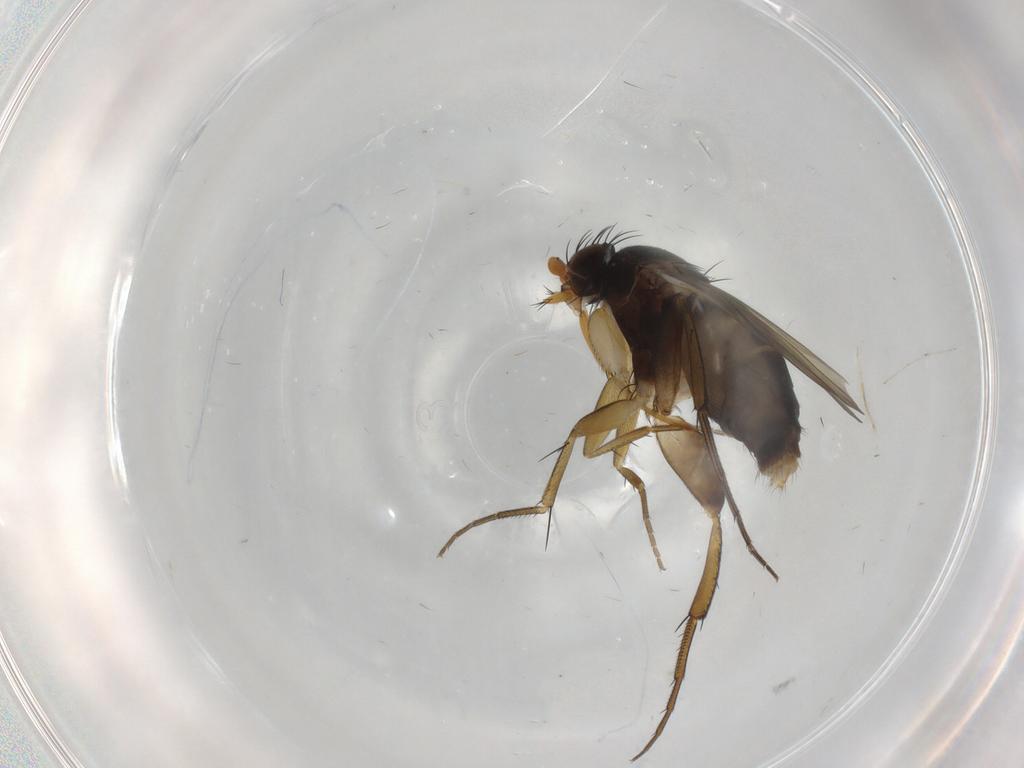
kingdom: Animalia
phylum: Arthropoda
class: Insecta
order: Diptera
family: Phoridae
